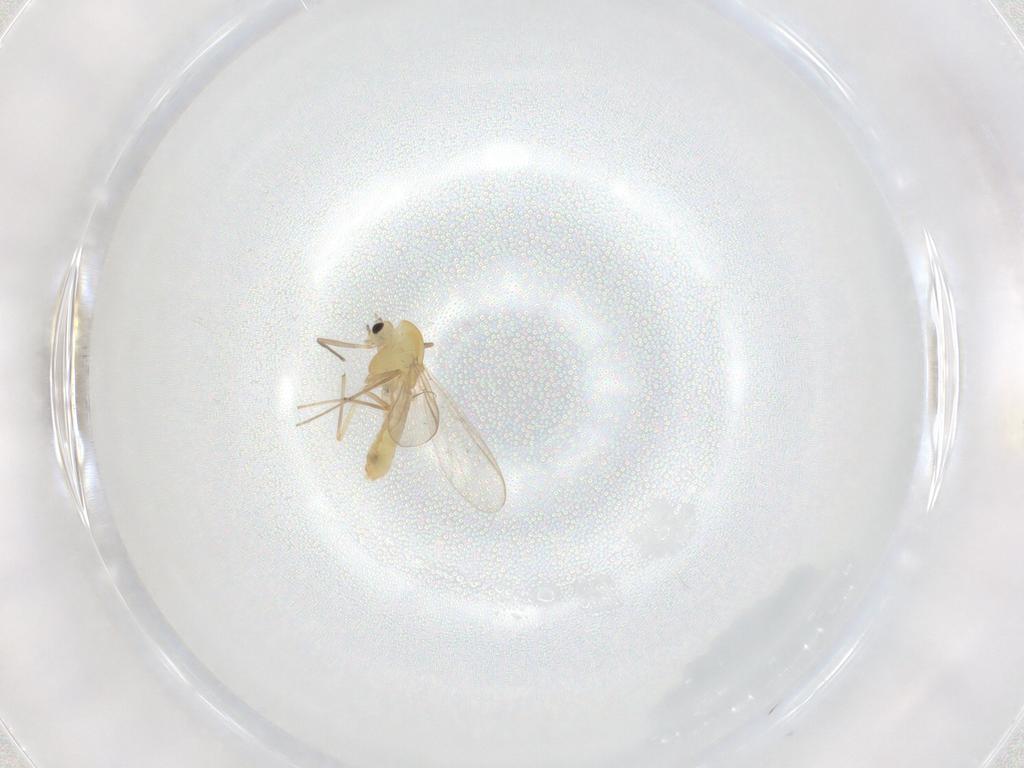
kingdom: Animalia
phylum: Arthropoda
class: Insecta
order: Diptera
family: Chironomidae
